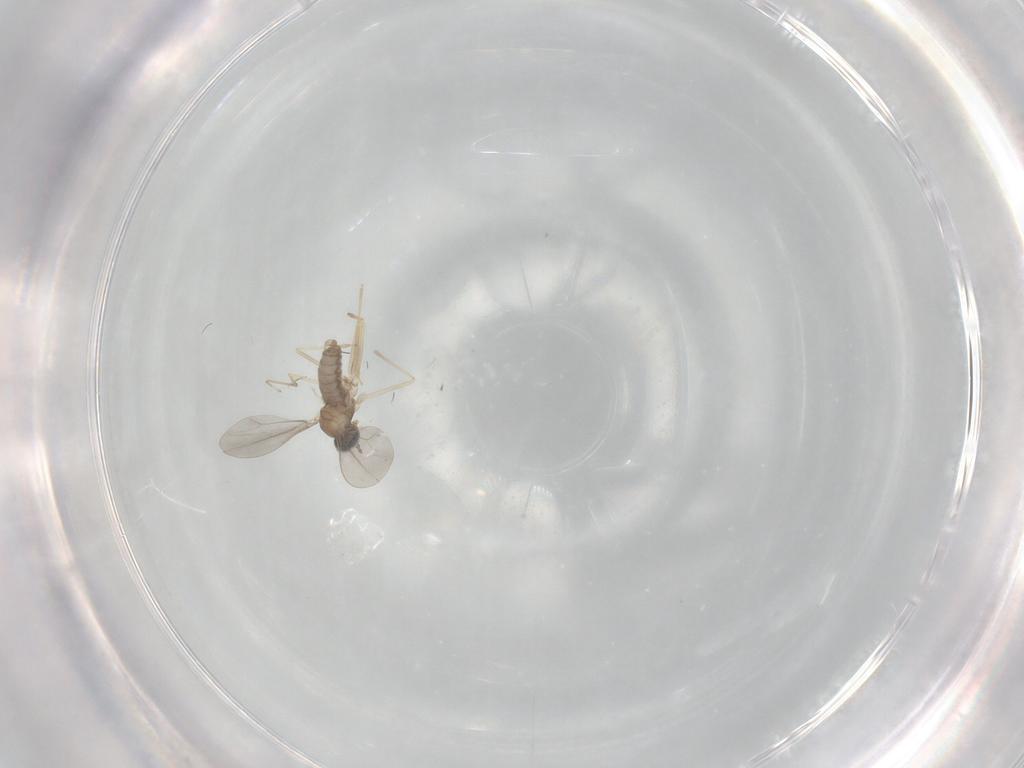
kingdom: Animalia
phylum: Arthropoda
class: Insecta
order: Diptera
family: Cecidomyiidae
